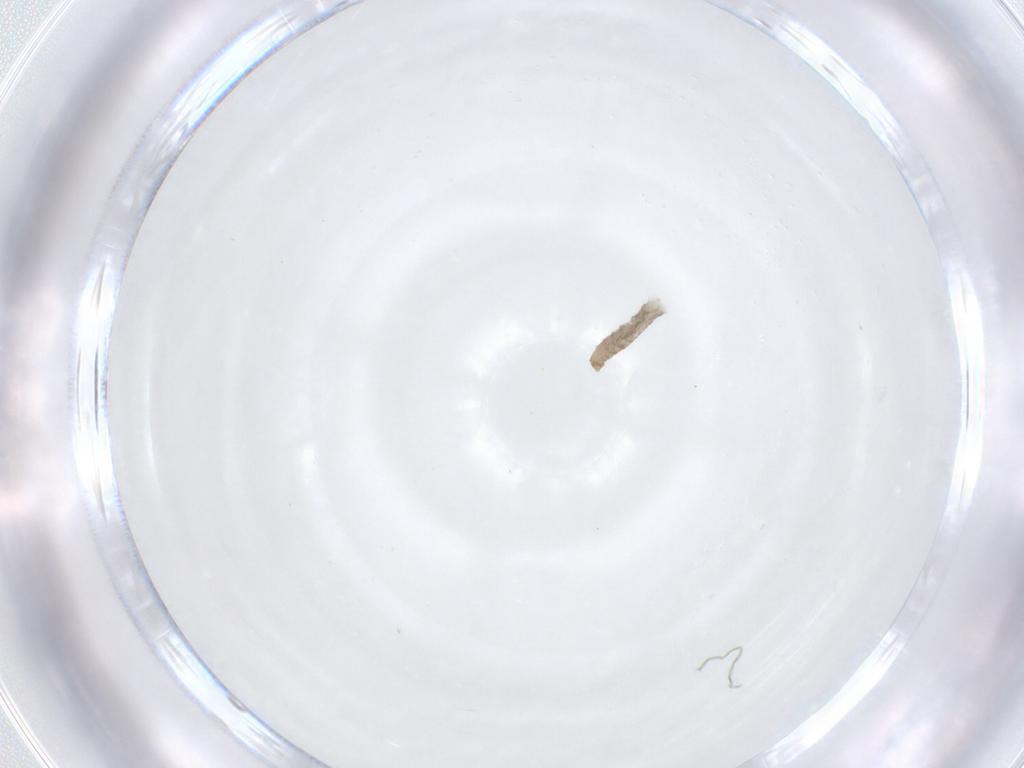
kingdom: Animalia
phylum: Arthropoda
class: Insecta
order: Diptera
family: Cecidomyiidae
